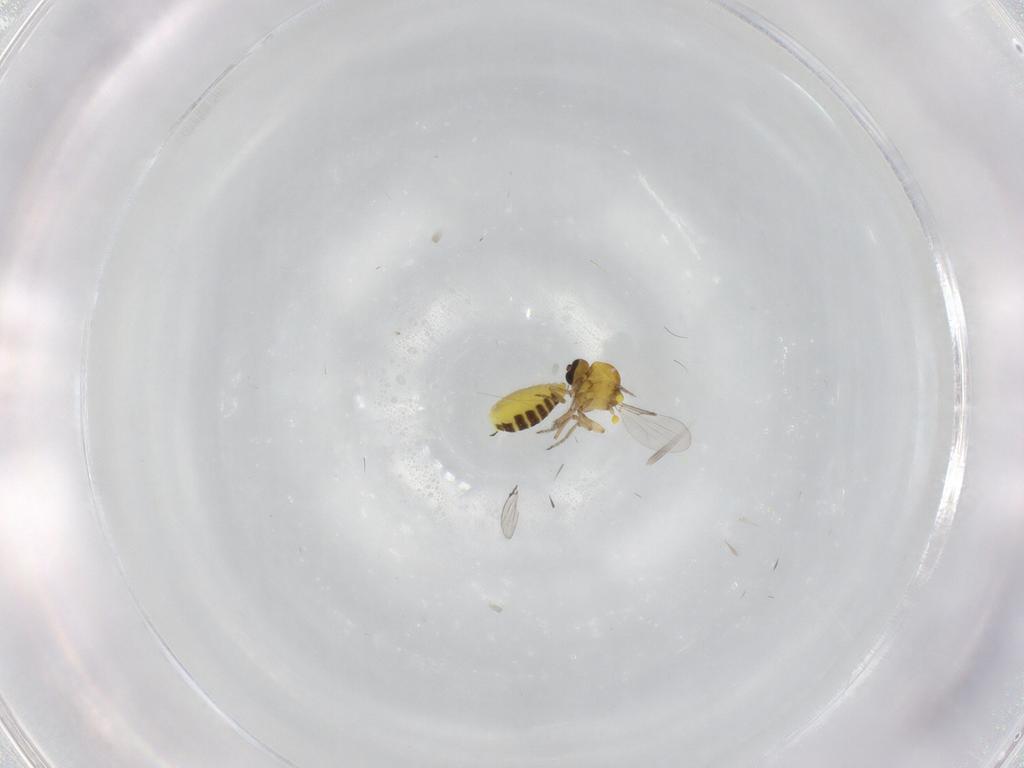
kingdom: Animalia
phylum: Arthropoda
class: Insecta
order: Diptera
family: Ceratopogonidae
